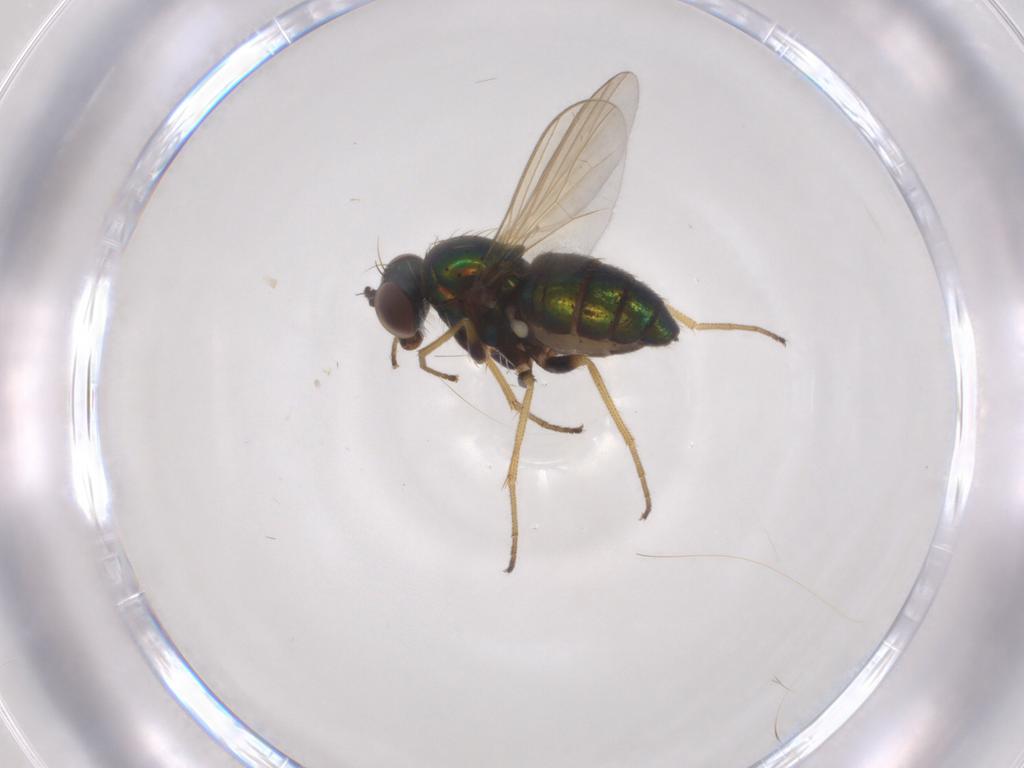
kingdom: Animalia
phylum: Arthropoda
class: Insecta
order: Diptera
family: Dolichopodidae
